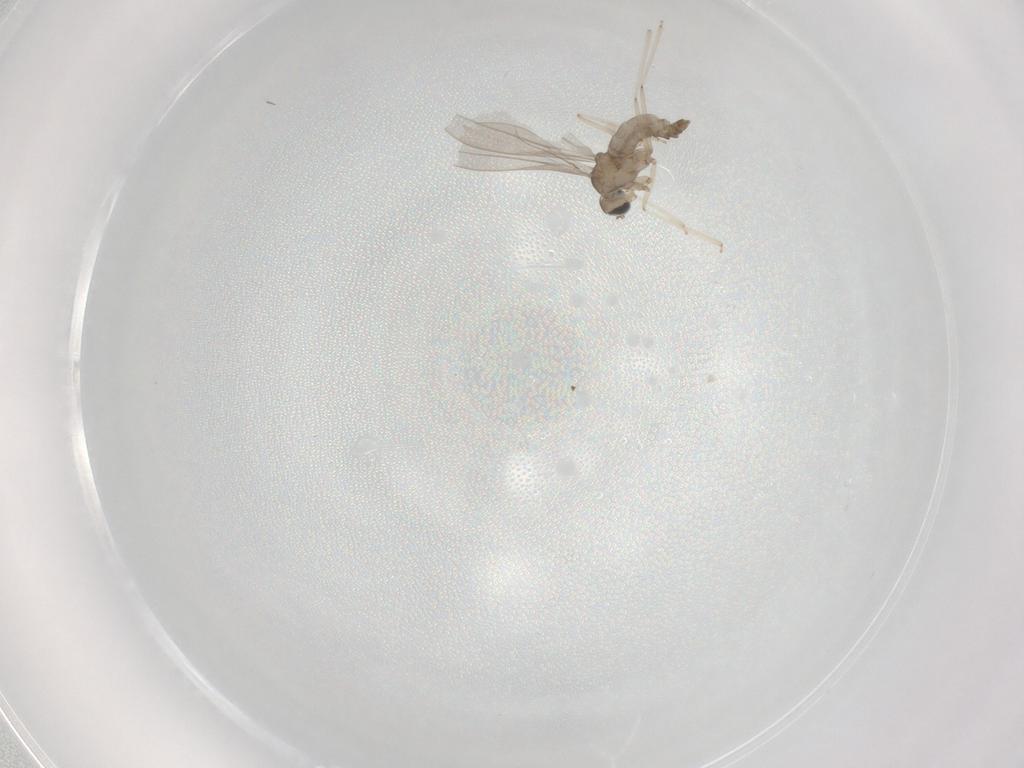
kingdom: Animalia
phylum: Arthropoda
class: Insecta
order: Diptera
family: Ceratopogonidae
